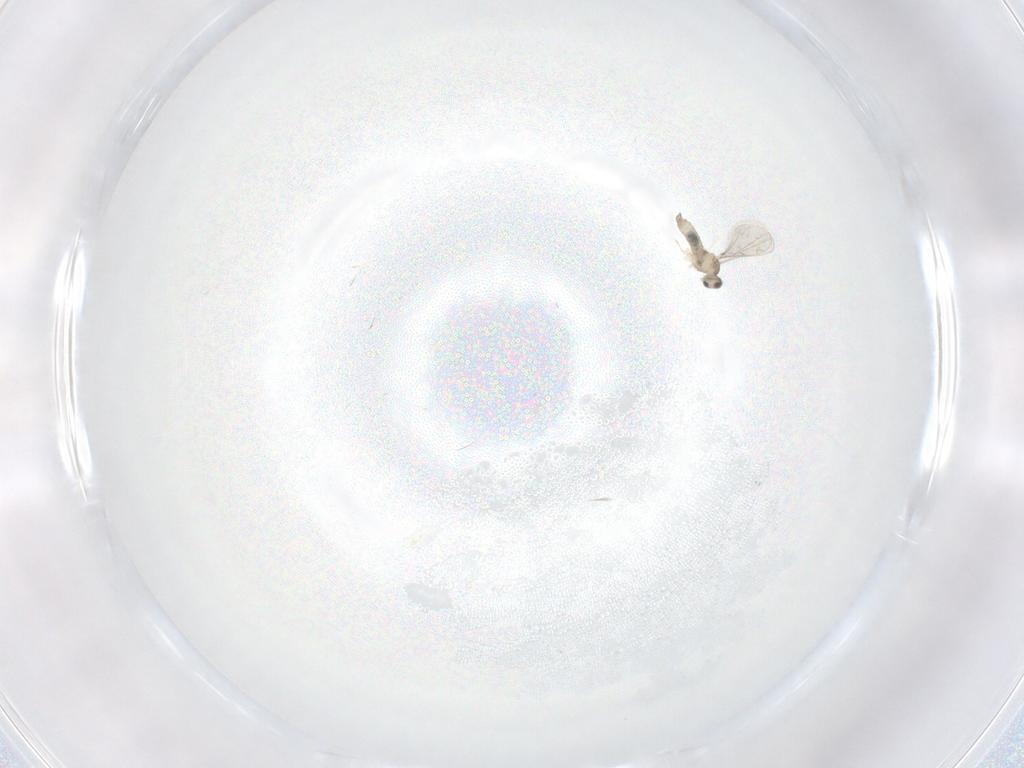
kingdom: Animalia
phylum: Arthropoda
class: Insecta
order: Diptera
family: Cecidomyiidae
